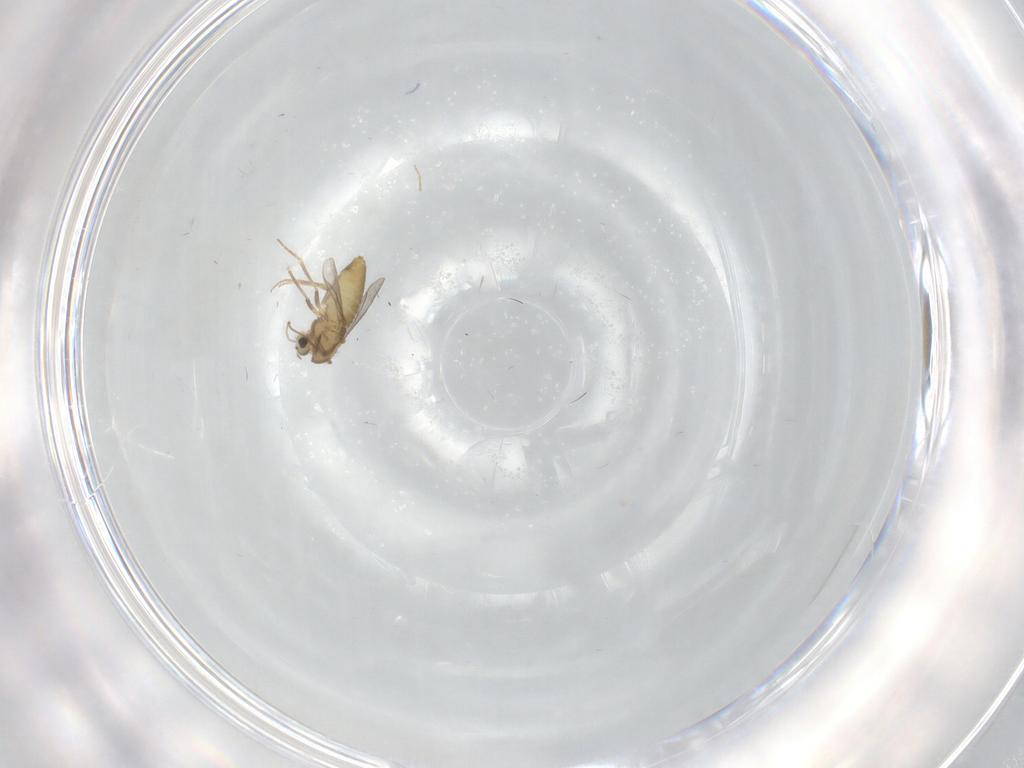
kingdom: Animalia
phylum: Arthropoda
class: Insecta
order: Diptera
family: Chironomidae
